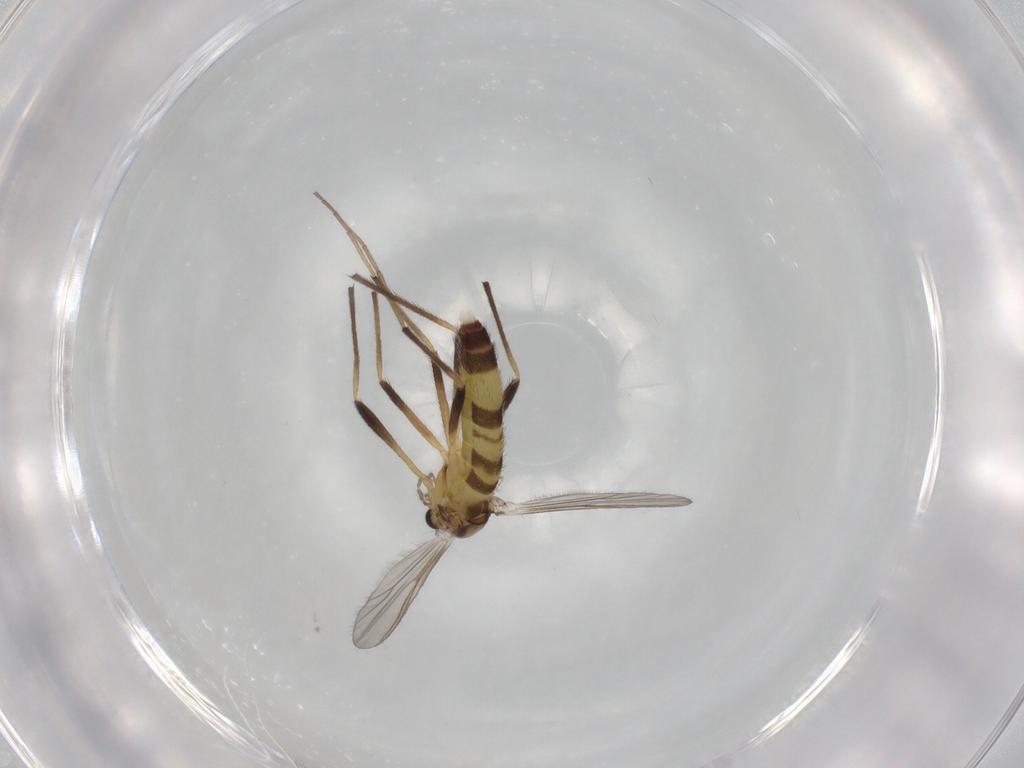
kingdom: Animalia
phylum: Arthropoda
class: Insecta
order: Diptera
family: Chironomidae
